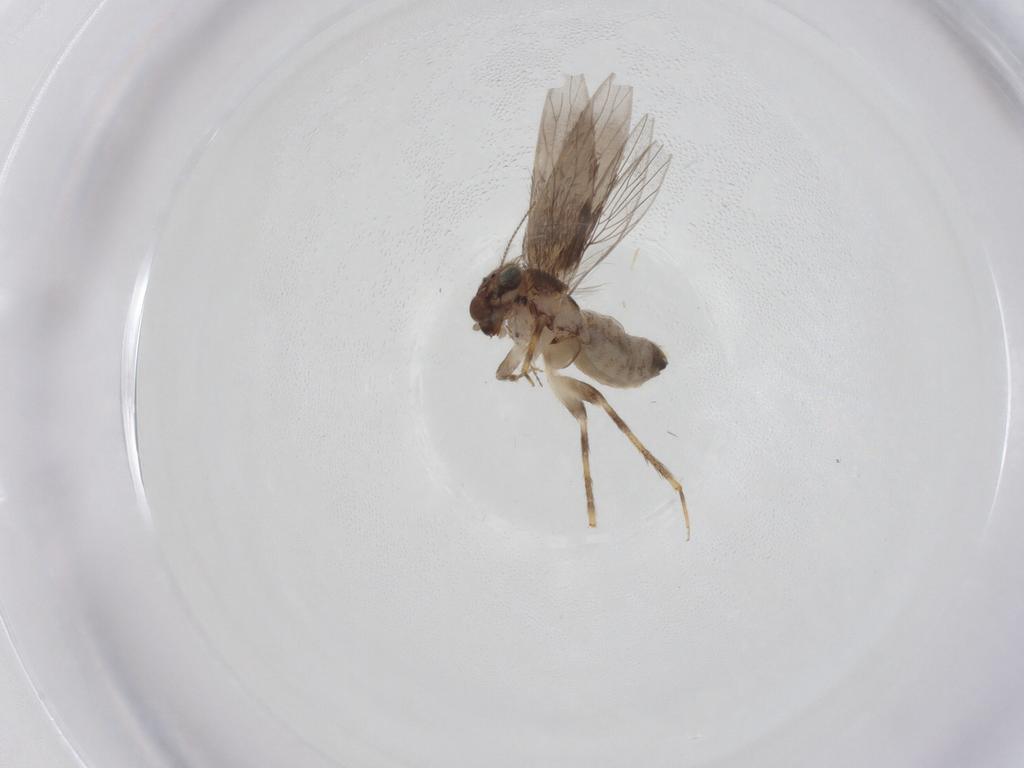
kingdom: Animalia
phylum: Arthropoda
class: Insecta
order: Psocodea
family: Lepidopsocidae
